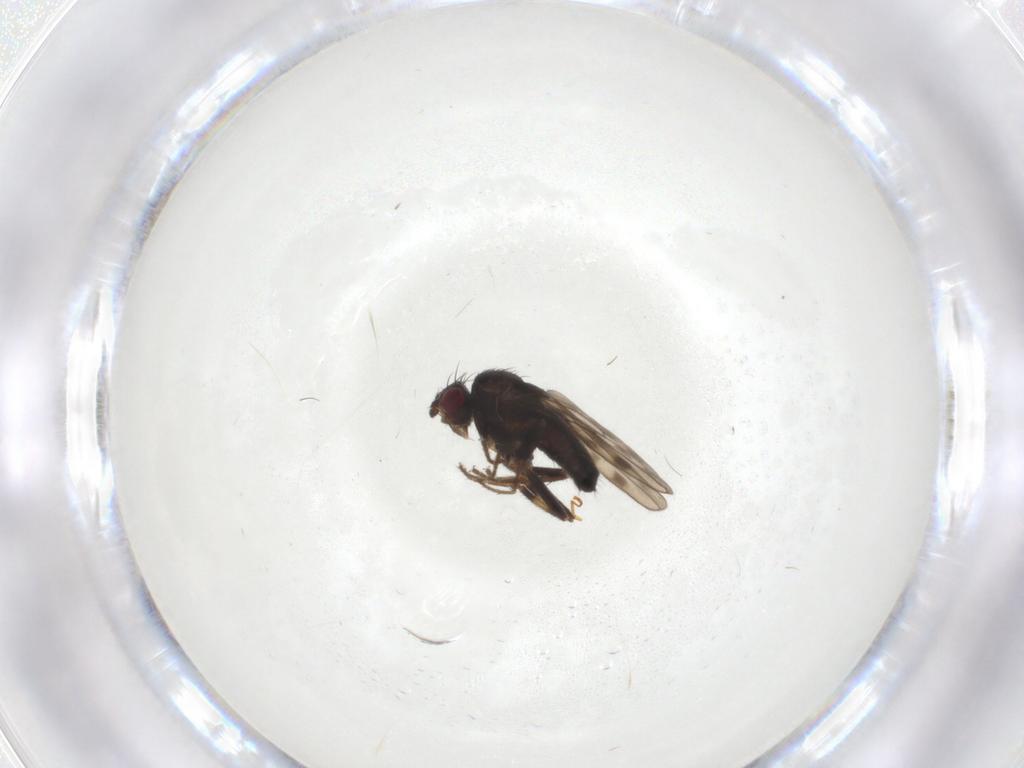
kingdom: Animalia
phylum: Arthropoda
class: Insecta
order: Diptera
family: Sphaeroceridae
